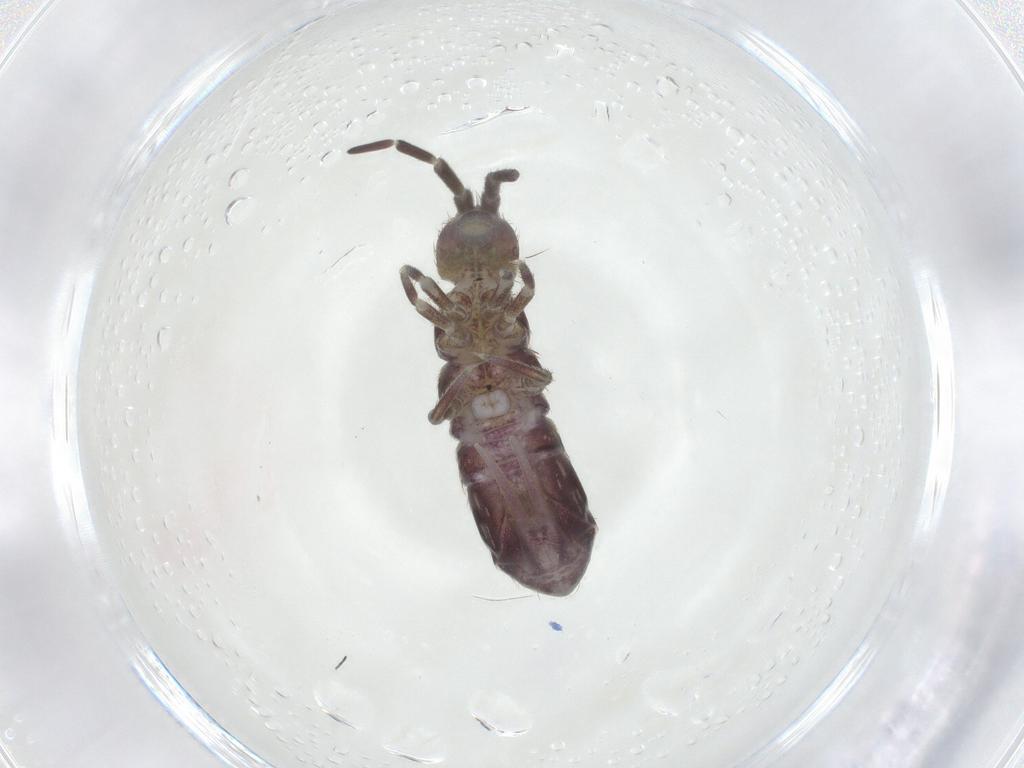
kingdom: Animalia
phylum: Arthropoda
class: Collembola
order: Entomobryomorpha
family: Isotomidae
